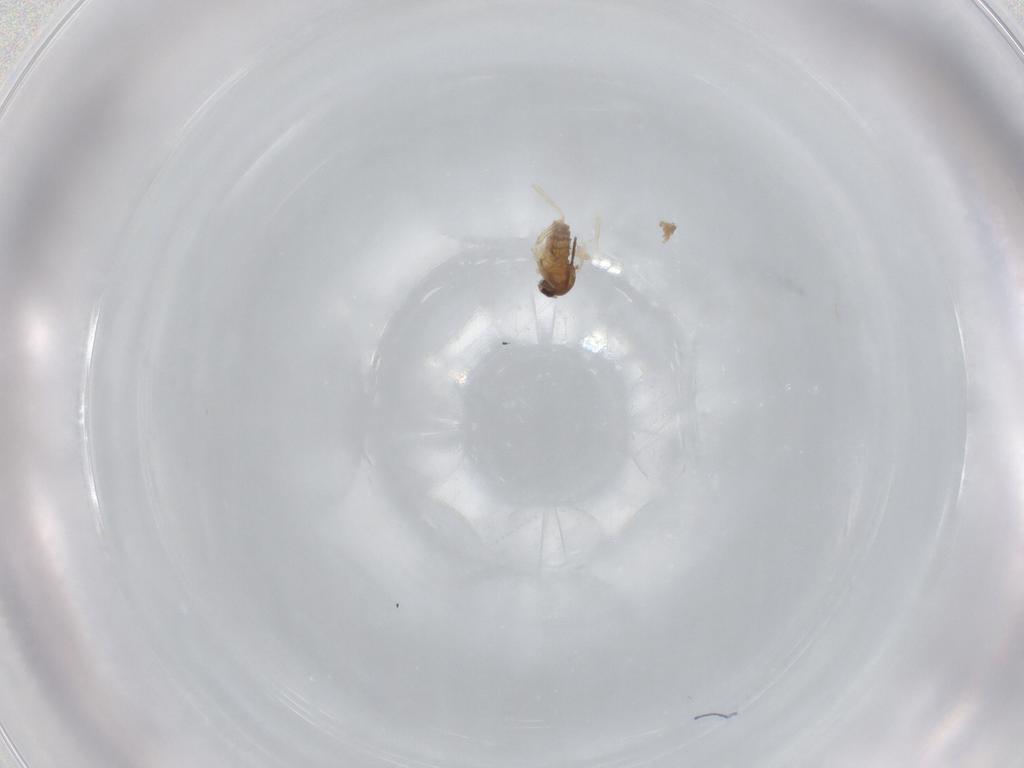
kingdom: Animalia
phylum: Arthropoda
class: Insecta
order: Diptera
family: Cecidomyiidae
